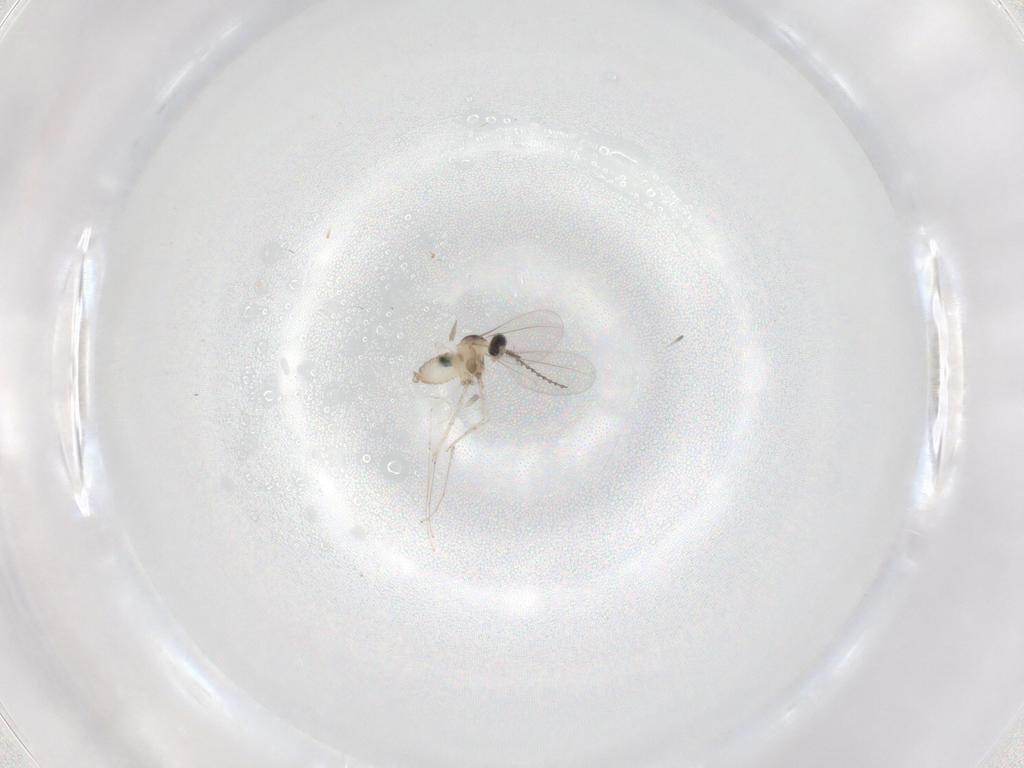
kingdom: Animalia
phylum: Arthropoda
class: Insecta
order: Diptera
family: Cecidomyiidae
